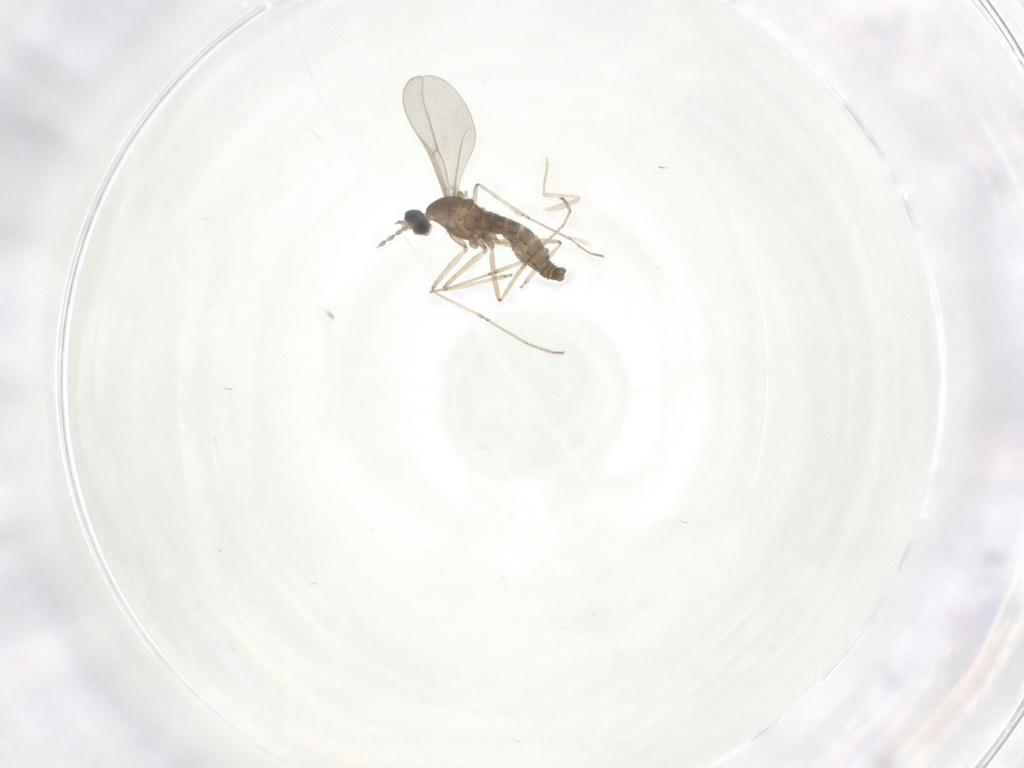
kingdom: Animalia
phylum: Arthropoda
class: Insecta
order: Diptera
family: Cecidomyiidae
